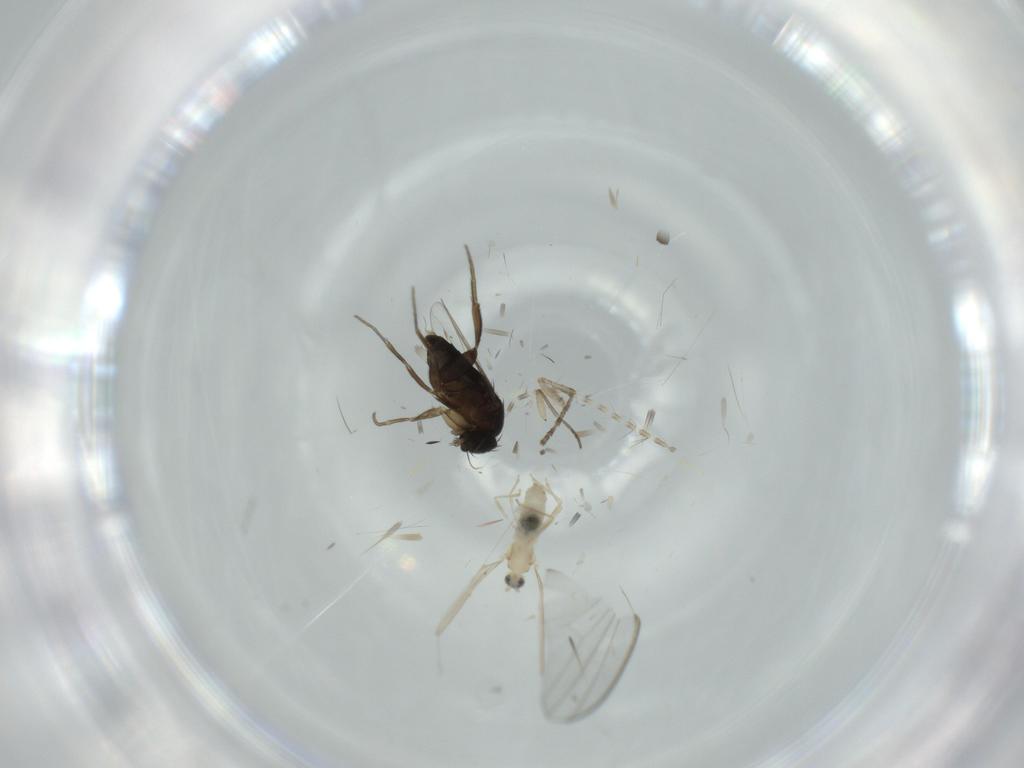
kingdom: Animalia
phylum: Arthropoda
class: Insecta
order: Diptera
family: Phoridae
